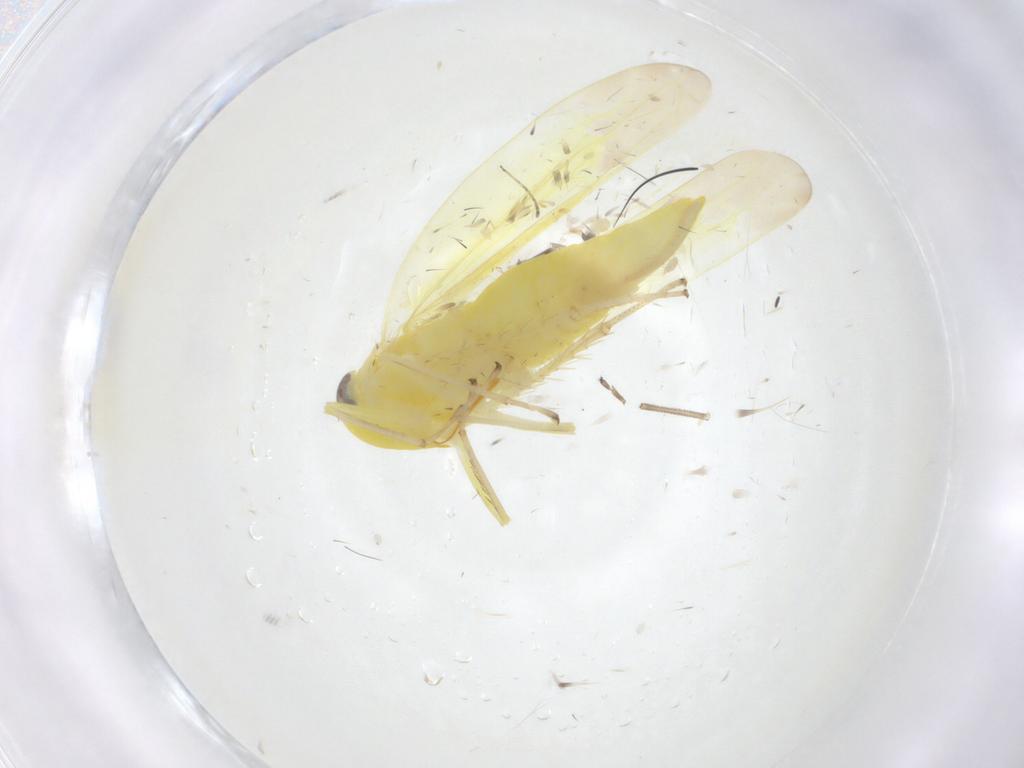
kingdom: Animalia
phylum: Arthropoda
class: Insecta
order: Hemiptera
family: Cicadellidae
